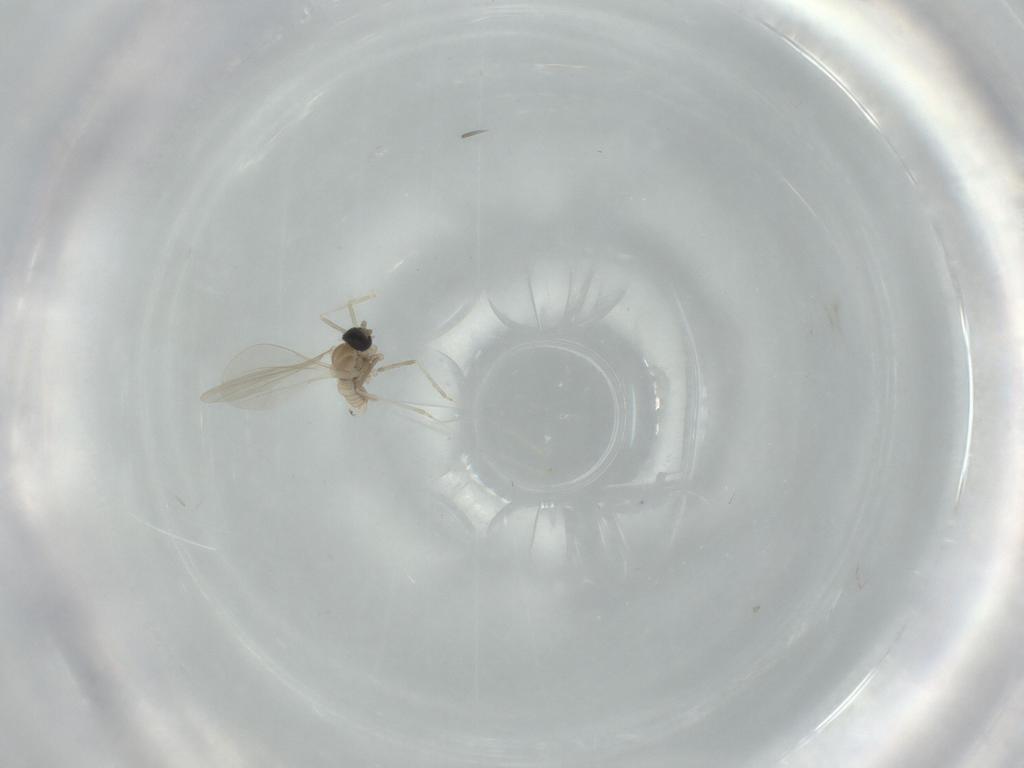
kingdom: Animalia
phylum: Arthropoda
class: Insecta
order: Diptera
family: Cecidomyiidae
